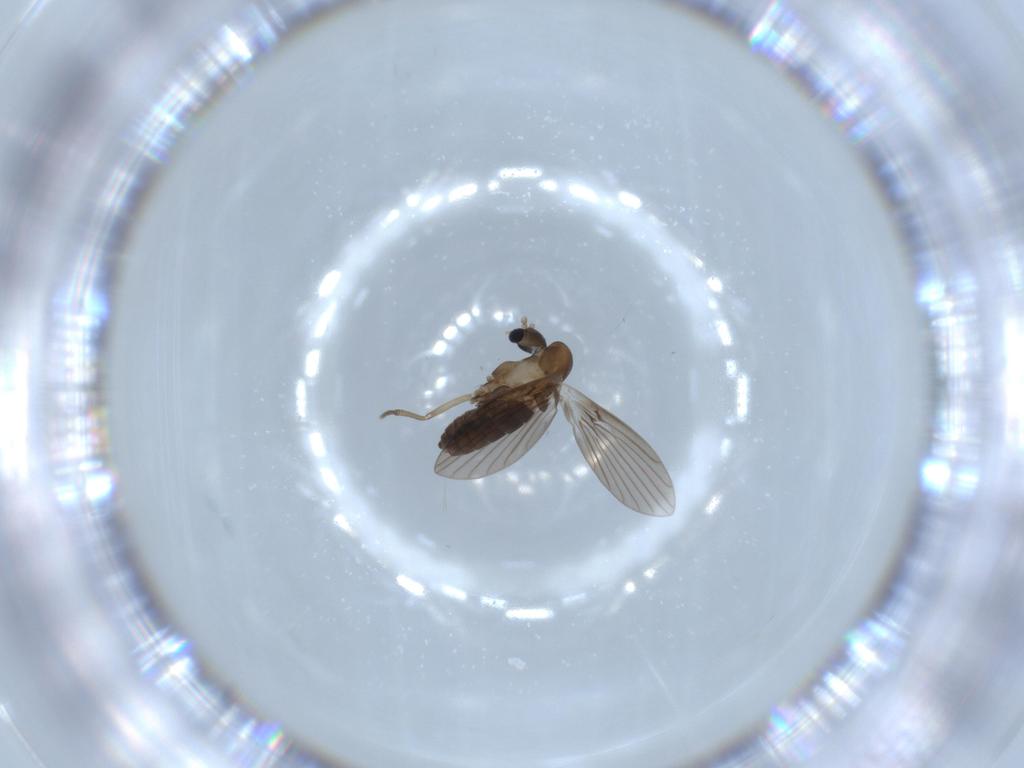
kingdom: Animalia
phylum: Arthropoda
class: Insecta
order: Diptera
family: Psychodidae
